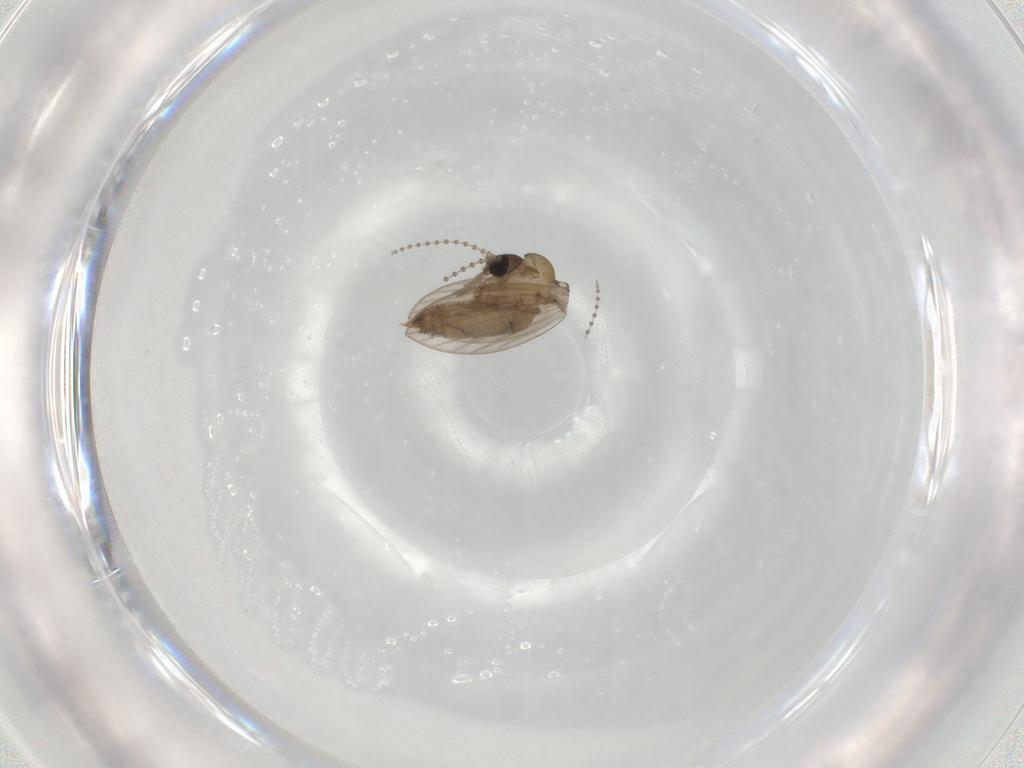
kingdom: Animalia
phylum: Arthropoda
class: Insecta
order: Diptera
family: Psychodidae
